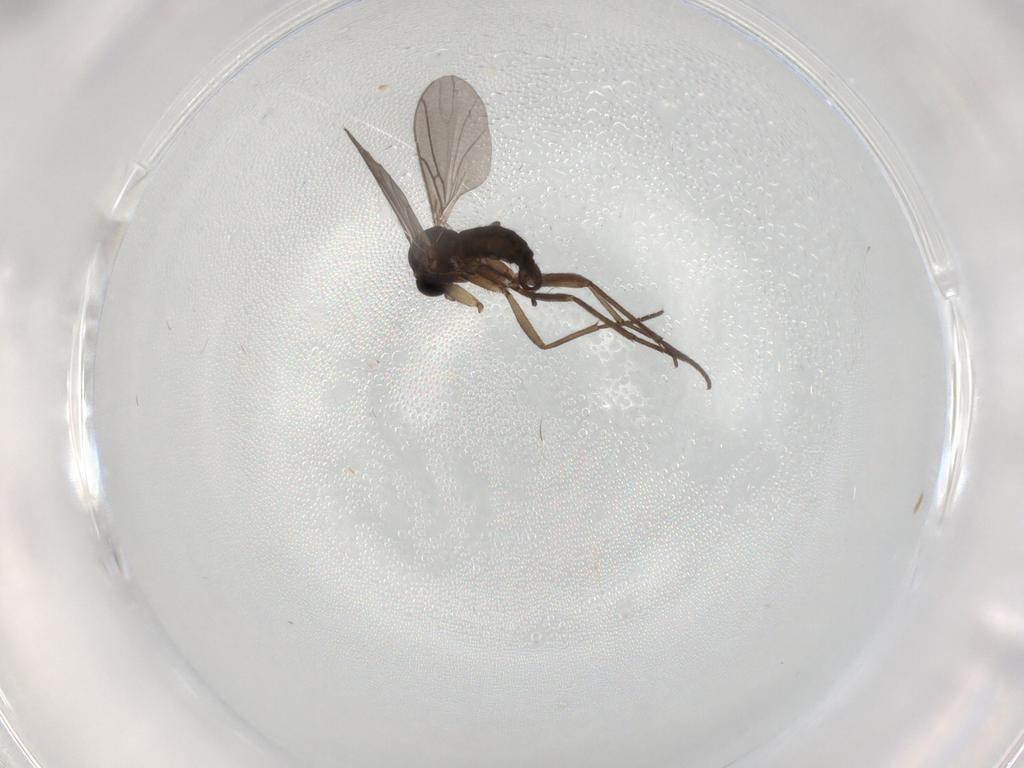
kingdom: Animalia
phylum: Arthropoda
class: Insecta
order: Diptera
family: Sciaridae
